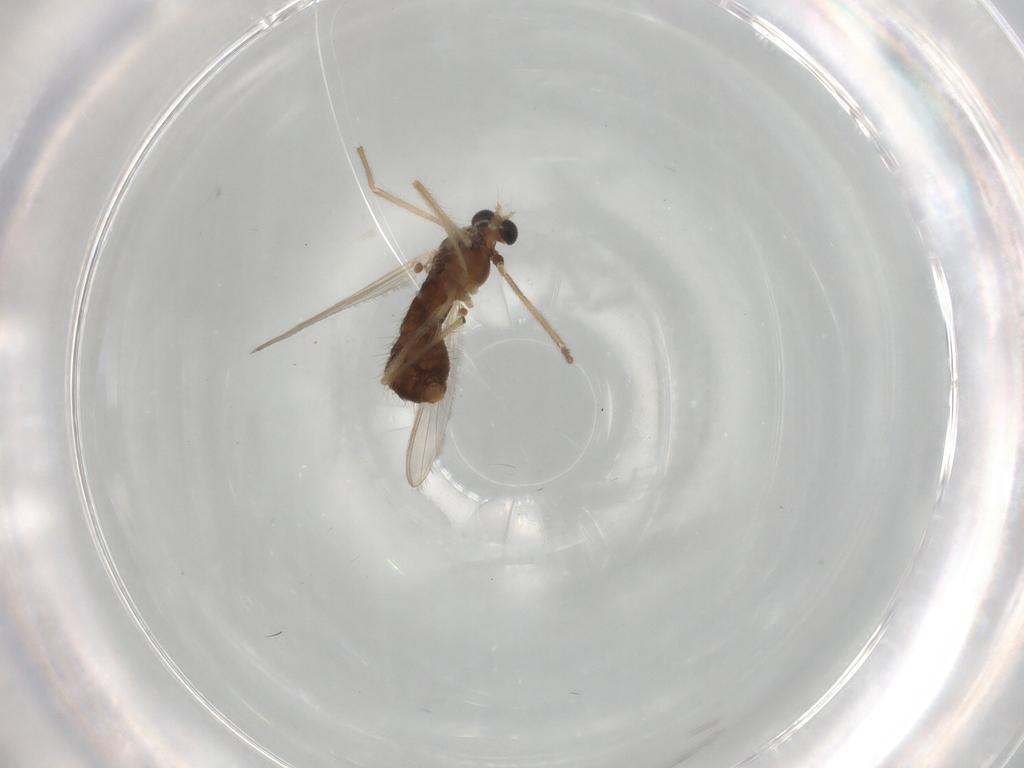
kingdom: Animalia
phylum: Arthropoda
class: Insecta
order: Diptera
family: Chironomidae
